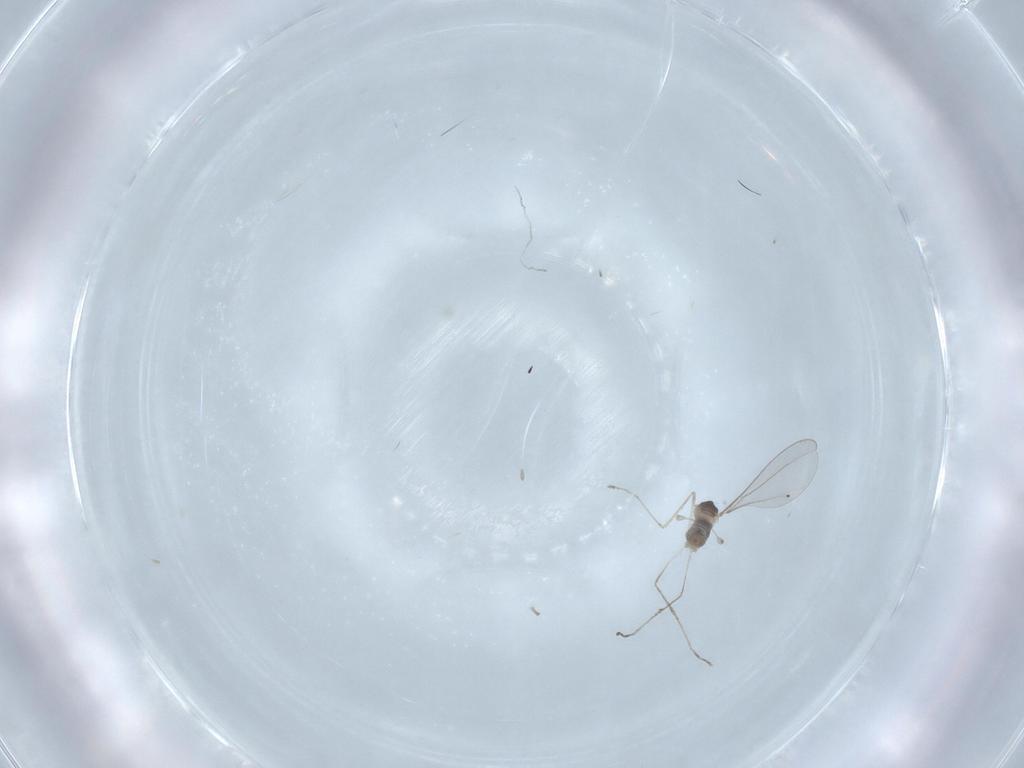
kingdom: Animalia
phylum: Arthropoda
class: Insecta
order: Diptera
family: Cecidomyiidae
